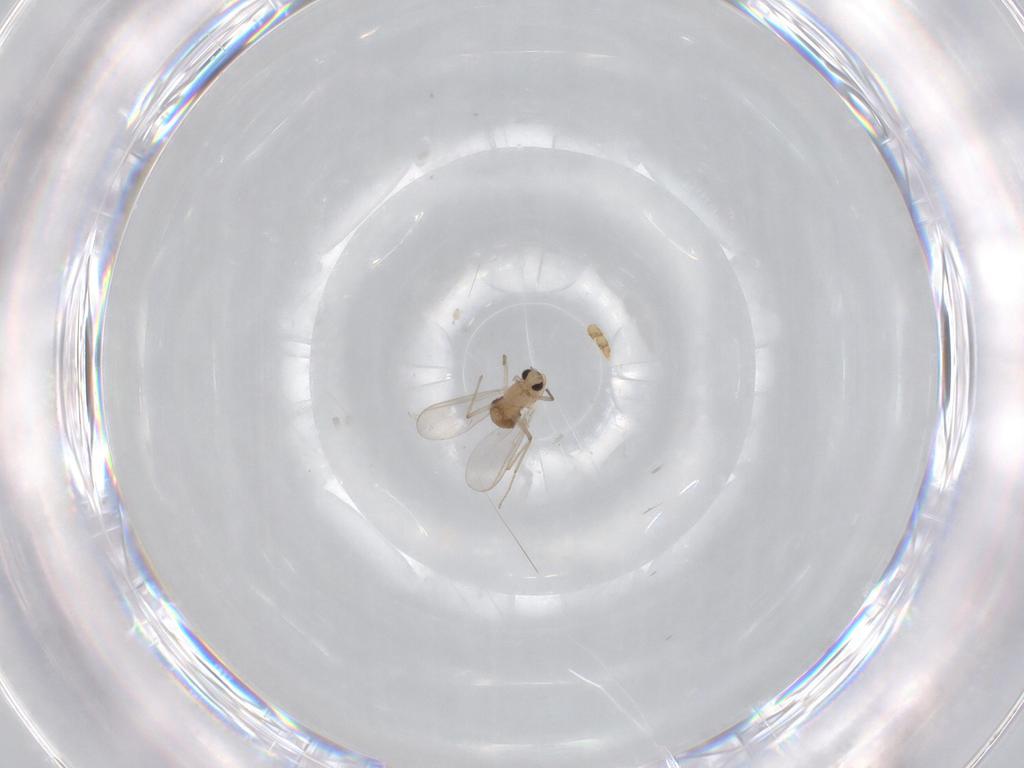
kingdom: Animalia
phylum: Arthropoda
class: Insecta
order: Diptera
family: Chironomidae
